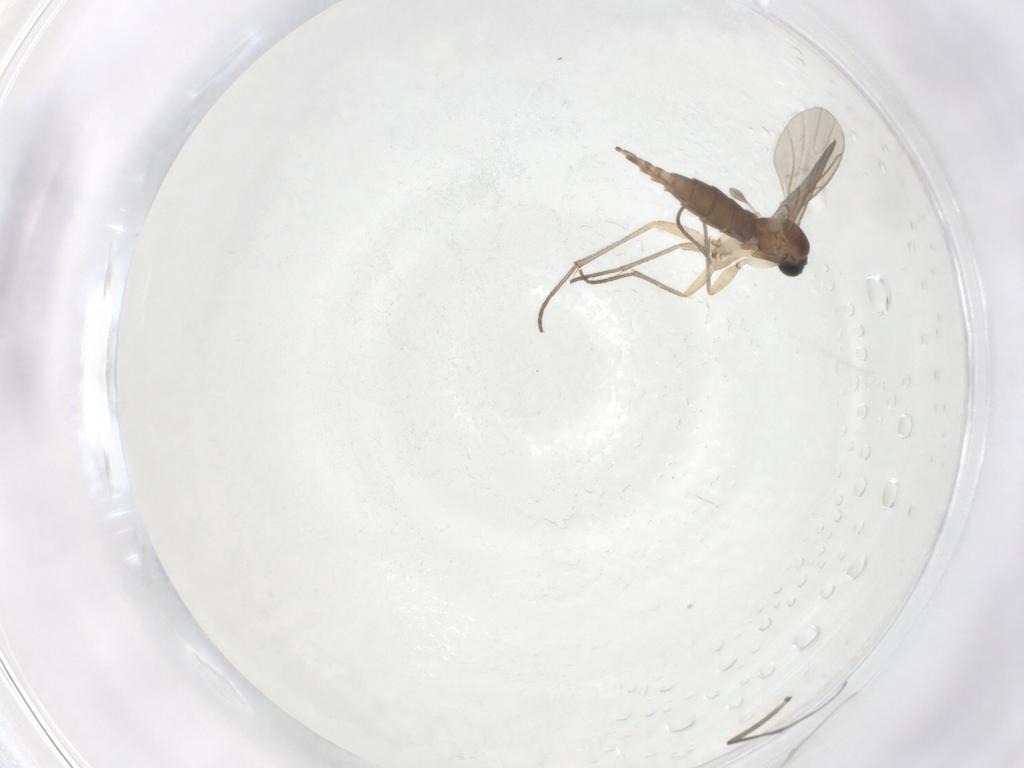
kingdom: Animalia
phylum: Arthropoda
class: Insecta
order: Diptera
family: Sciaridae
